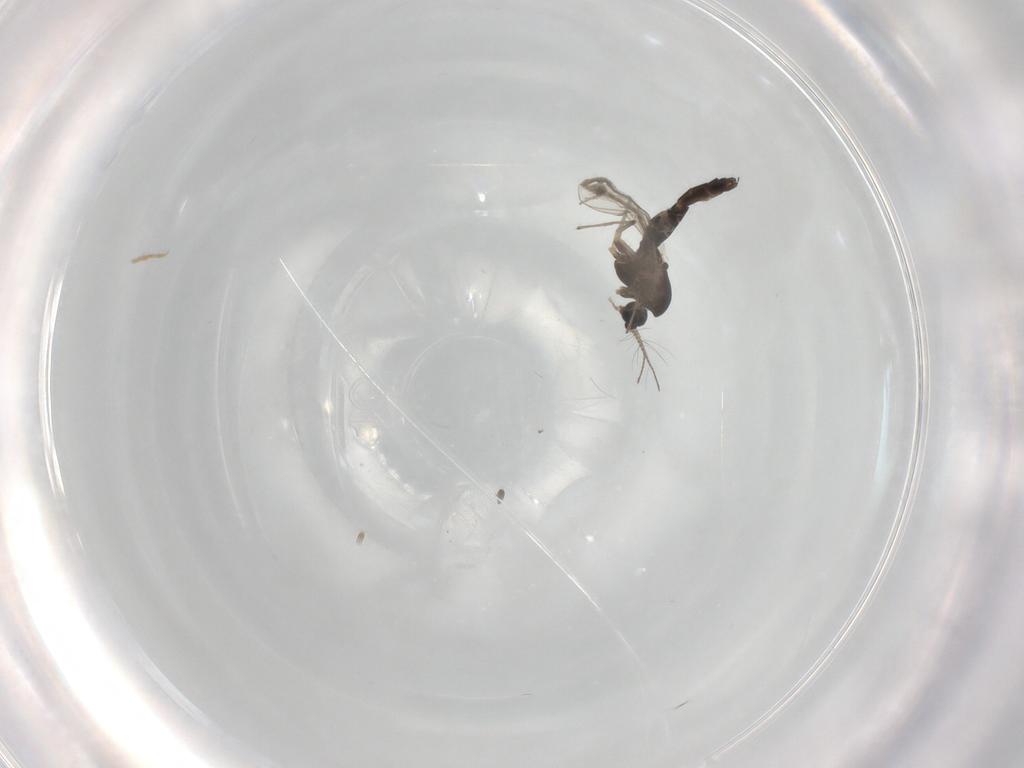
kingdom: Animalia
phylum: Arthropoda
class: Insecta
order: Diptera
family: Chironomidae
